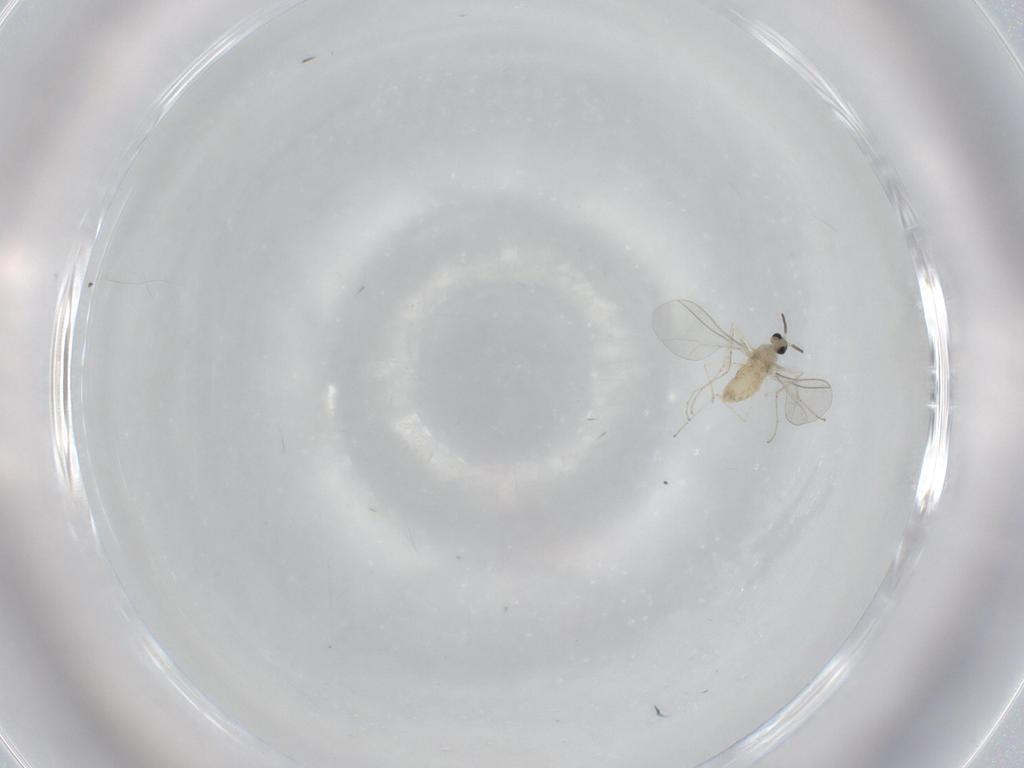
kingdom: Animalia
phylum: Arthropoda
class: Insecta
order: Diptera
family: Cecidomyiidae
